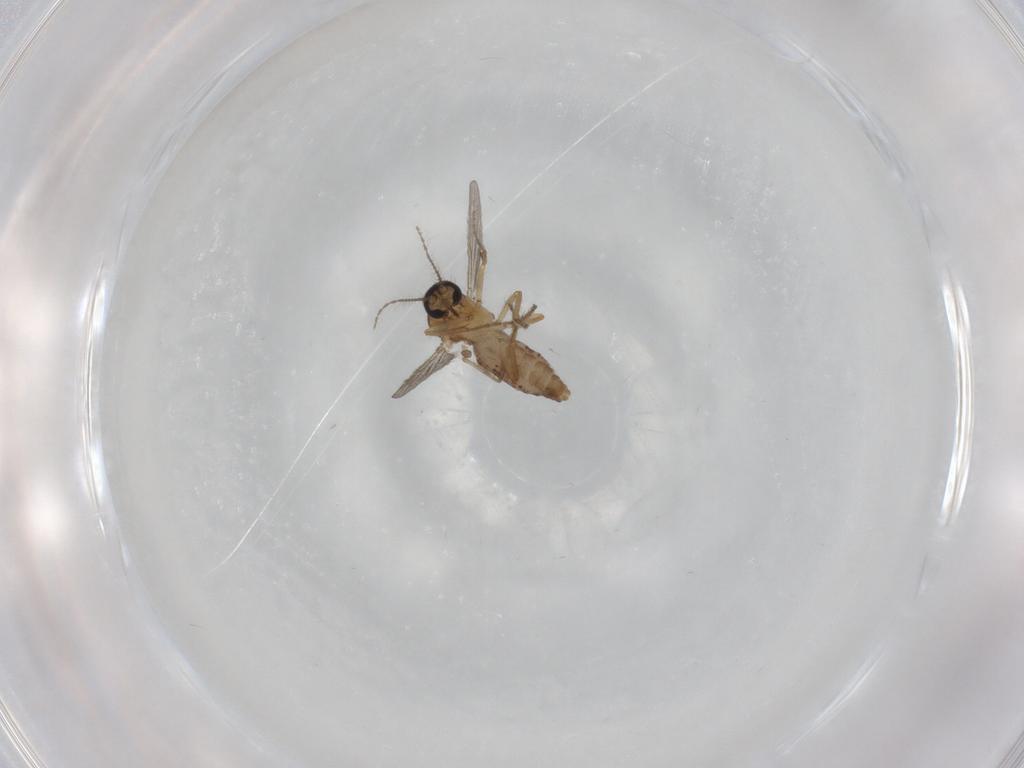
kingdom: Animalia
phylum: Arthropoda
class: Insecta
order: Diptera
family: Ceratopogonidae
